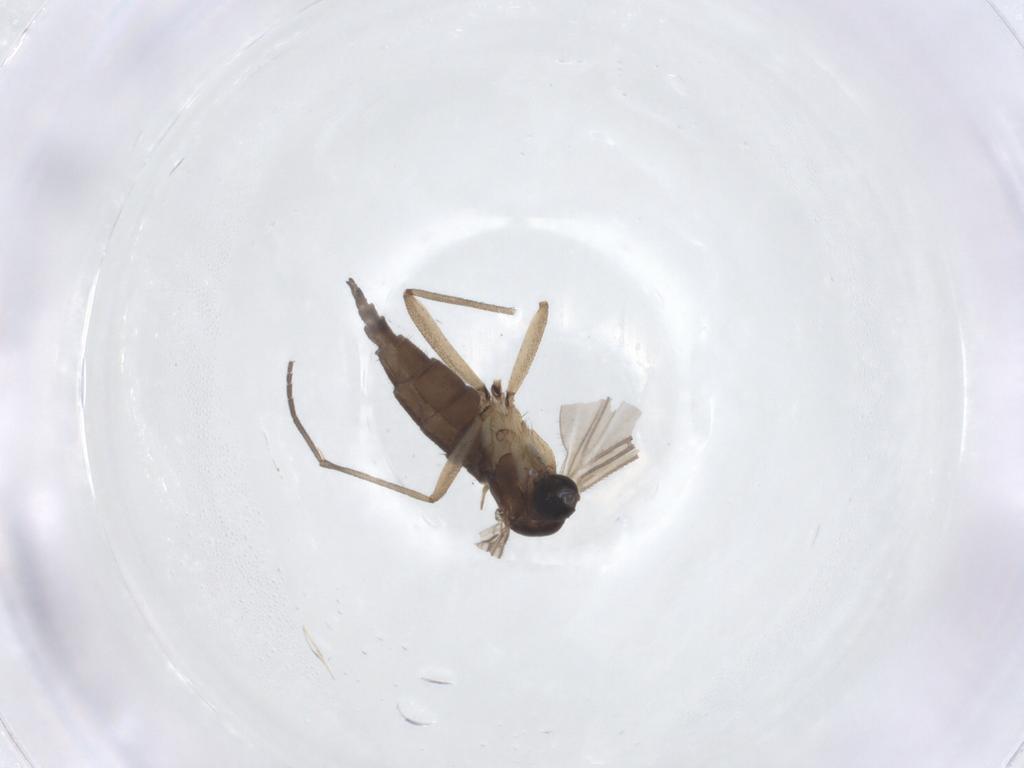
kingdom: Animalia
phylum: Arthropoda
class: Insecta
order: Diptera
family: Sciaridae
